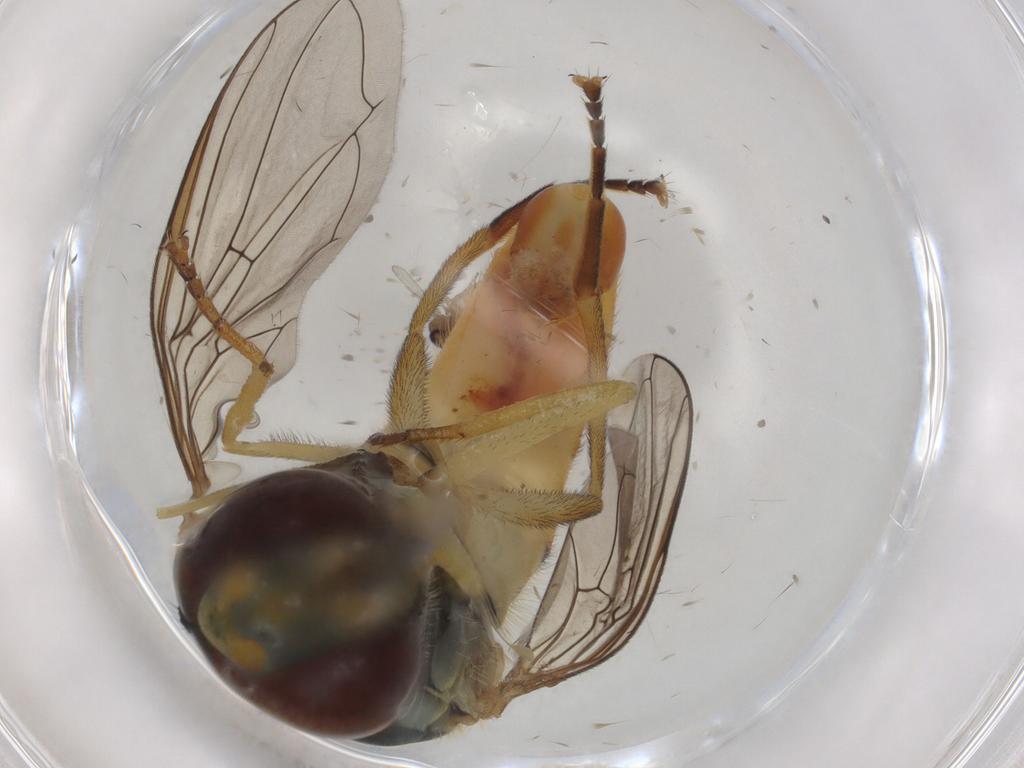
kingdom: Animalia
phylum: Arthropoda
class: Insecta
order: Diptera
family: Ceratopogonidae
